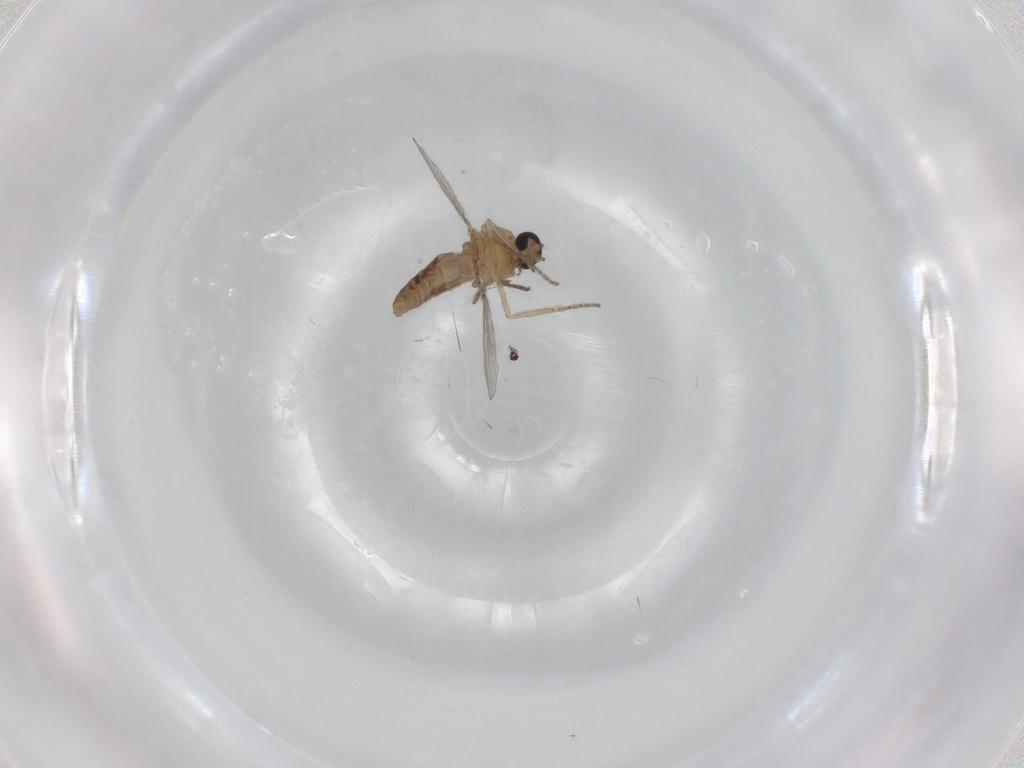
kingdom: Animalia
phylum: Arthropoda
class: Insecta
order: Diptera
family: Ceratopogonidae
